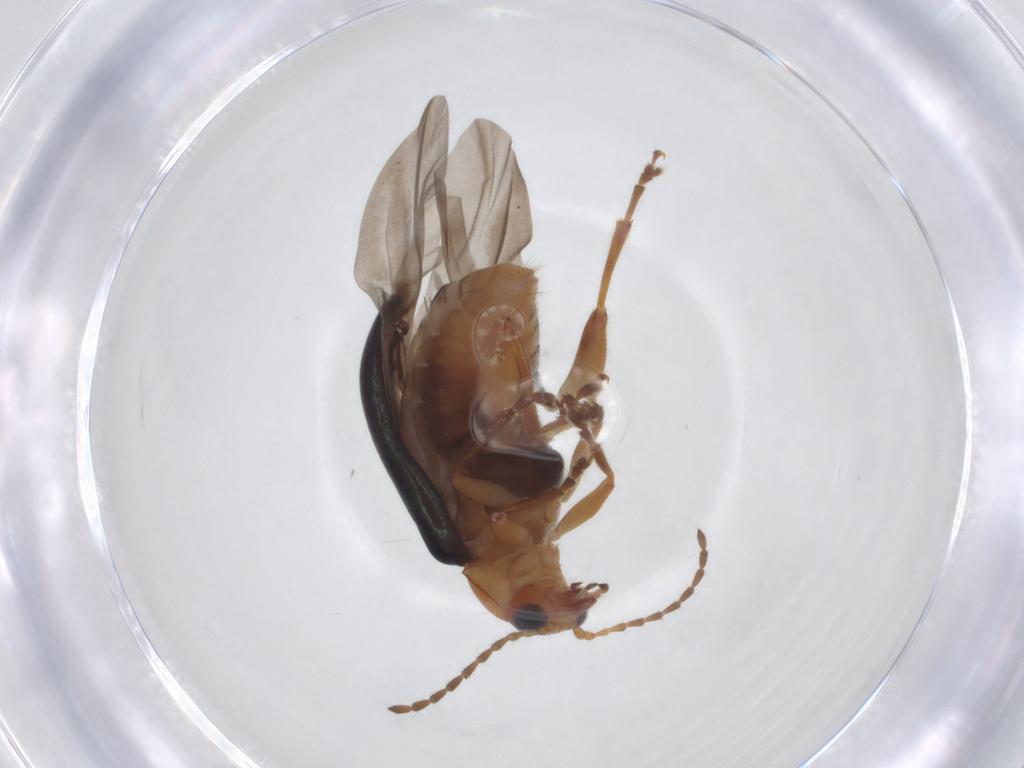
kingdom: Animalia
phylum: Arthropoda
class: Insecta
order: Coleoptera
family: Chrysomelidae
